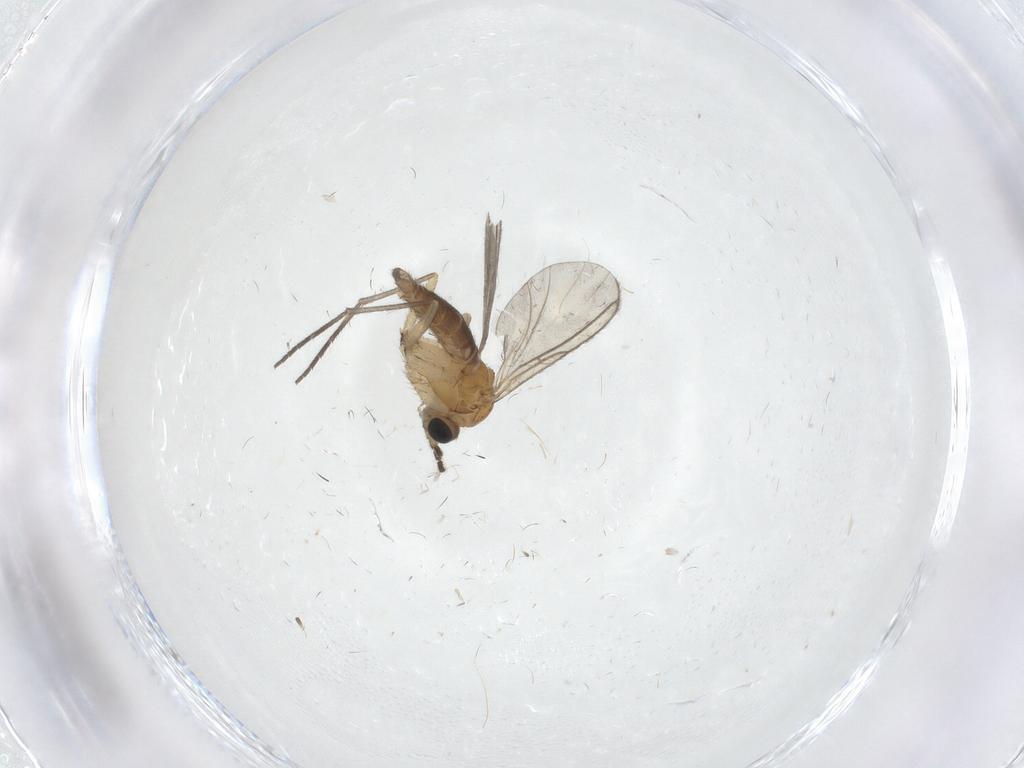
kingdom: Animalia
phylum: Arthropoda
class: Insecta
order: Diptera
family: Sciaridae
